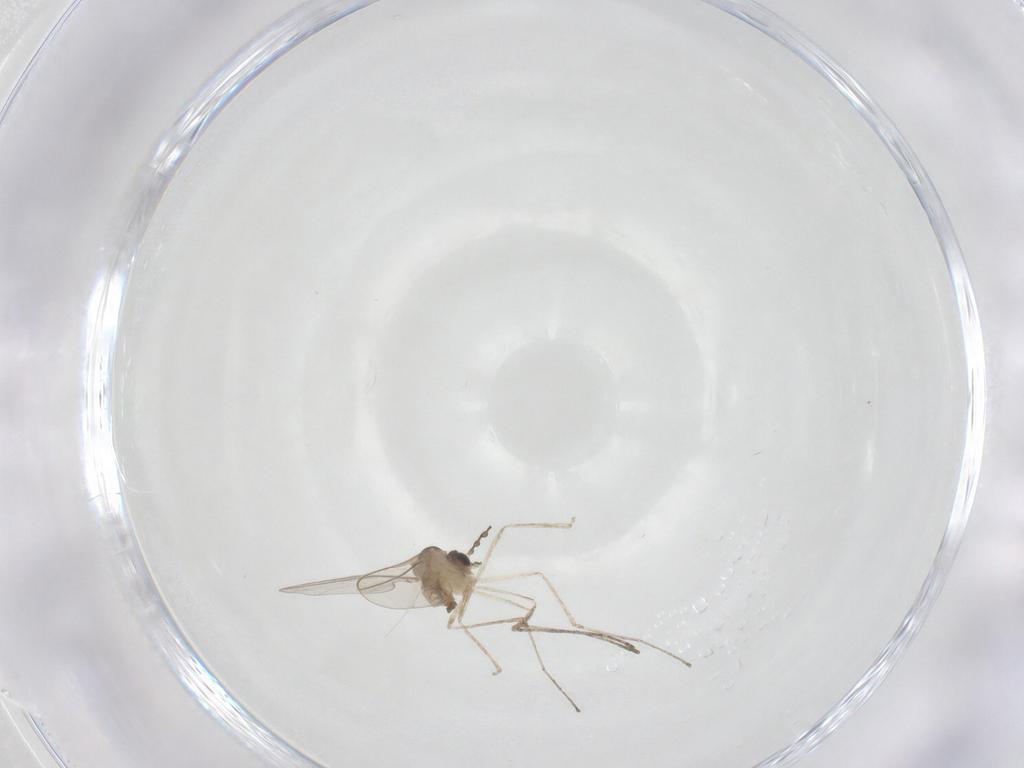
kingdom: Animalia
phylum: Arthropoda
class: Insecta
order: Diptera
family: Cecidomyiidae
